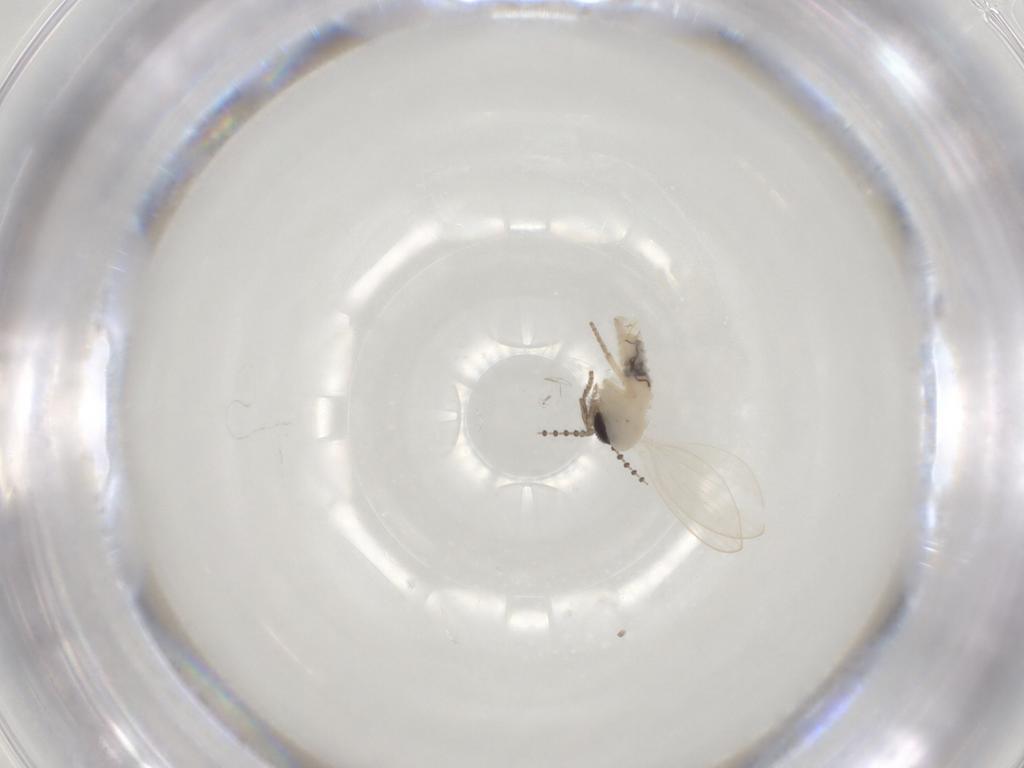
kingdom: Animalia
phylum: Arthropoda
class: Insecta
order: Diptera
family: Psychodidae
